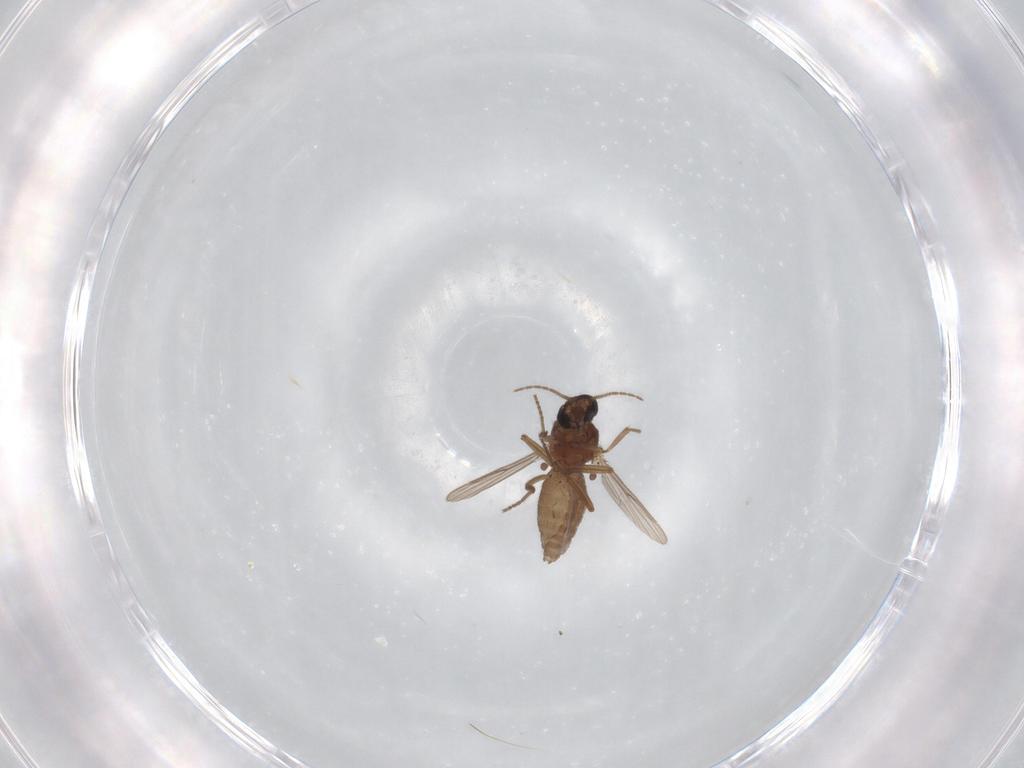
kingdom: Animalia
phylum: Arthropoda
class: Insecta
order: Diptera
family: Ceratopogonidae
